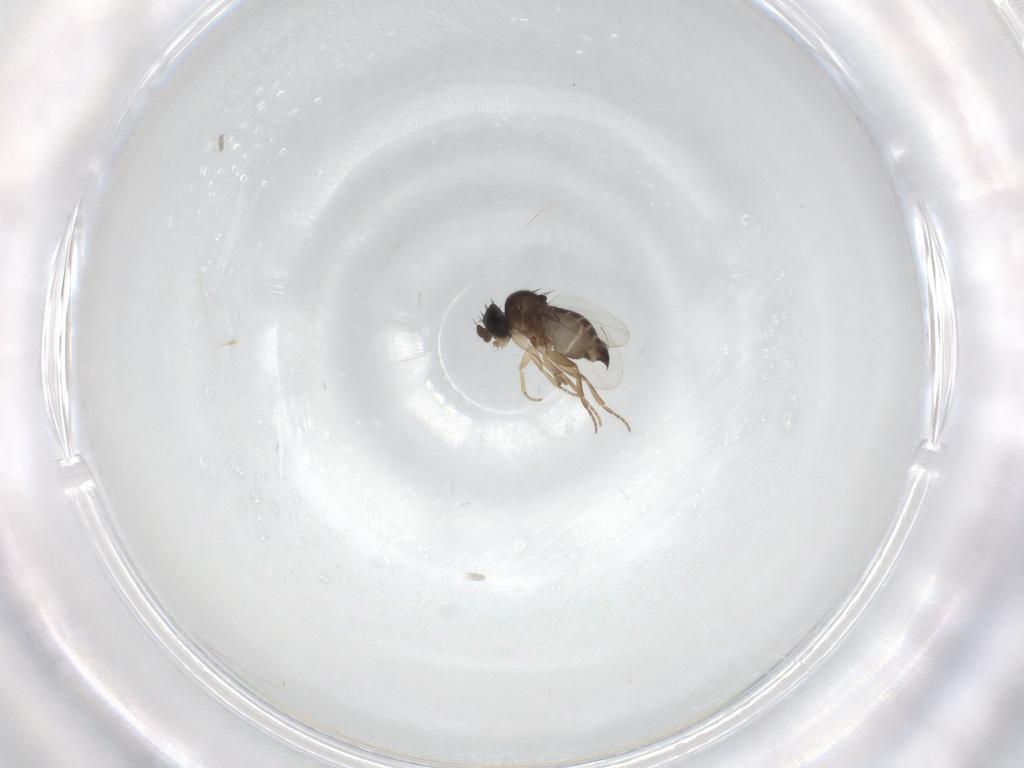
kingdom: Animalia
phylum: Arthropoda
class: Insecta
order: Diptera
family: Phoridae
